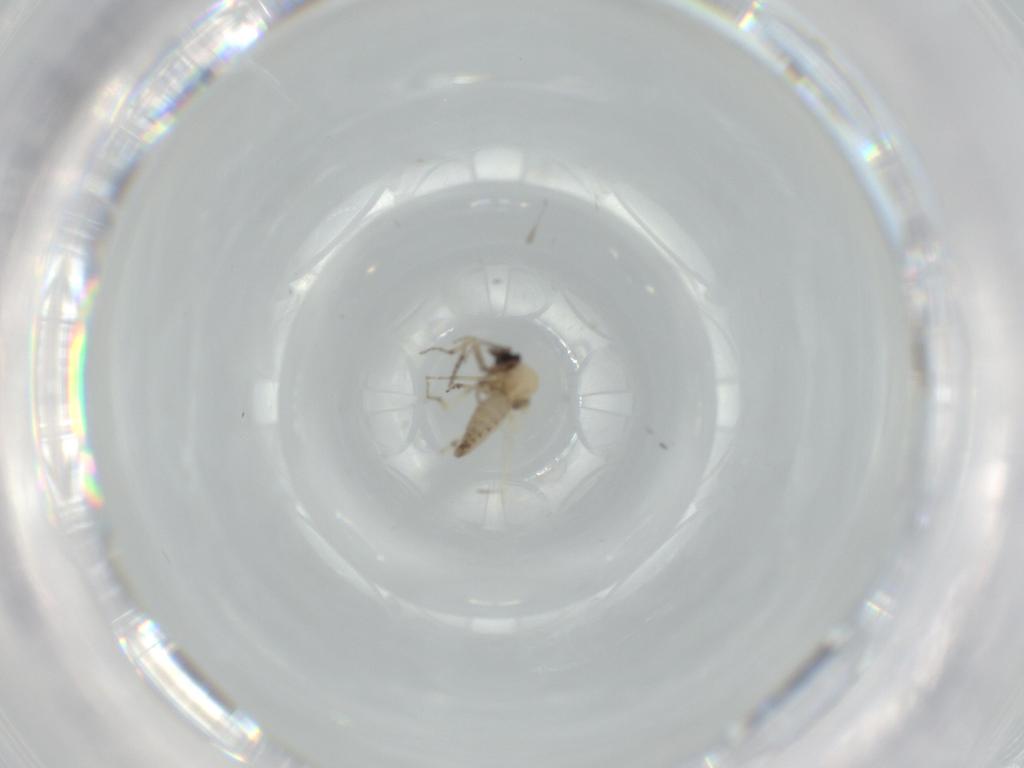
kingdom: Animalia
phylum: Arthropoda
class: Insecta
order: Diptera
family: Ceratopogonidae
